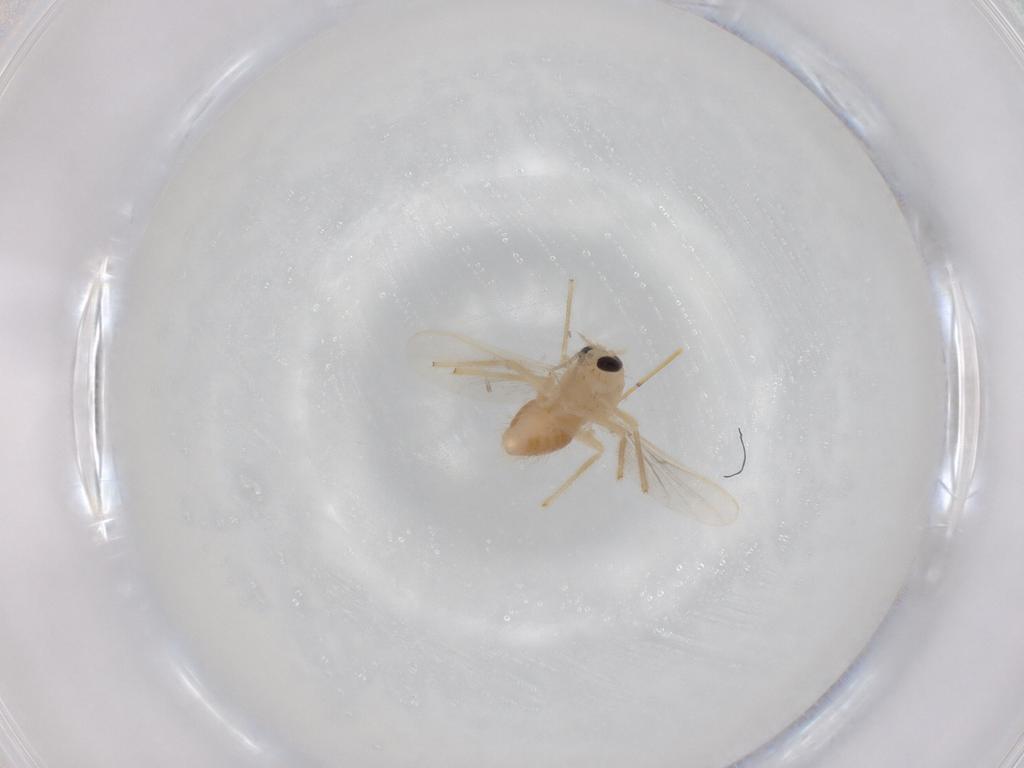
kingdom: Animalia
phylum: Arthropoda
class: Insecta
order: Diptera
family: Chironomidae
